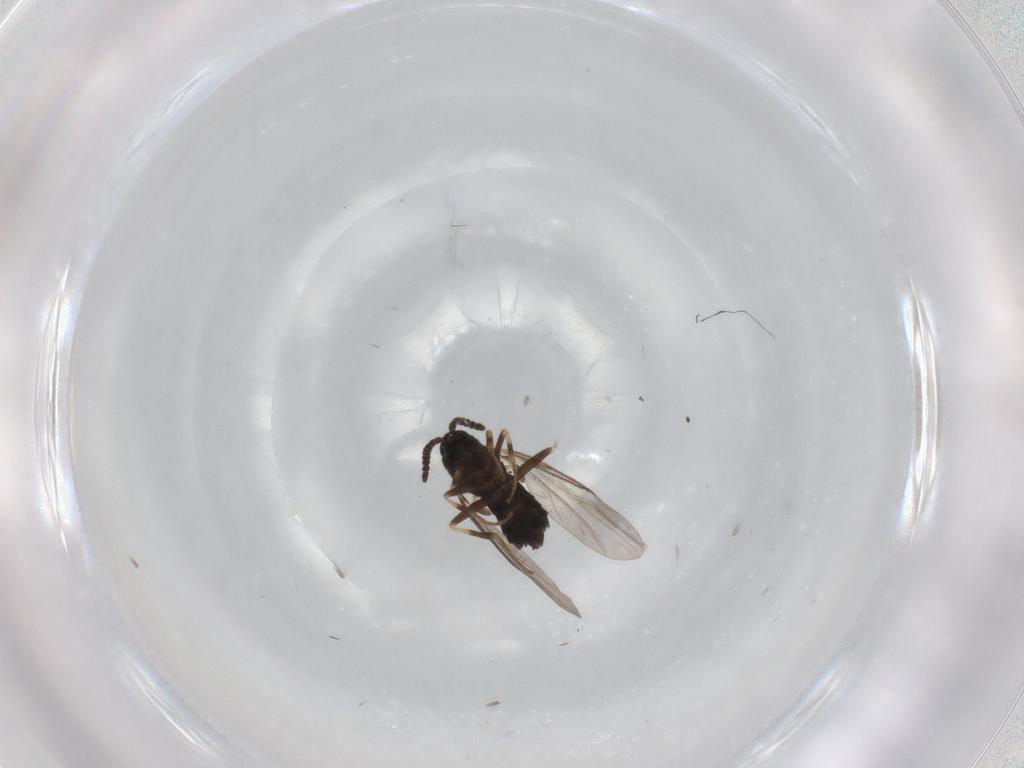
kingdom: Animalia
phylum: Arthropoda
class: Insecta
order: Diptera
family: Scatopsidae
